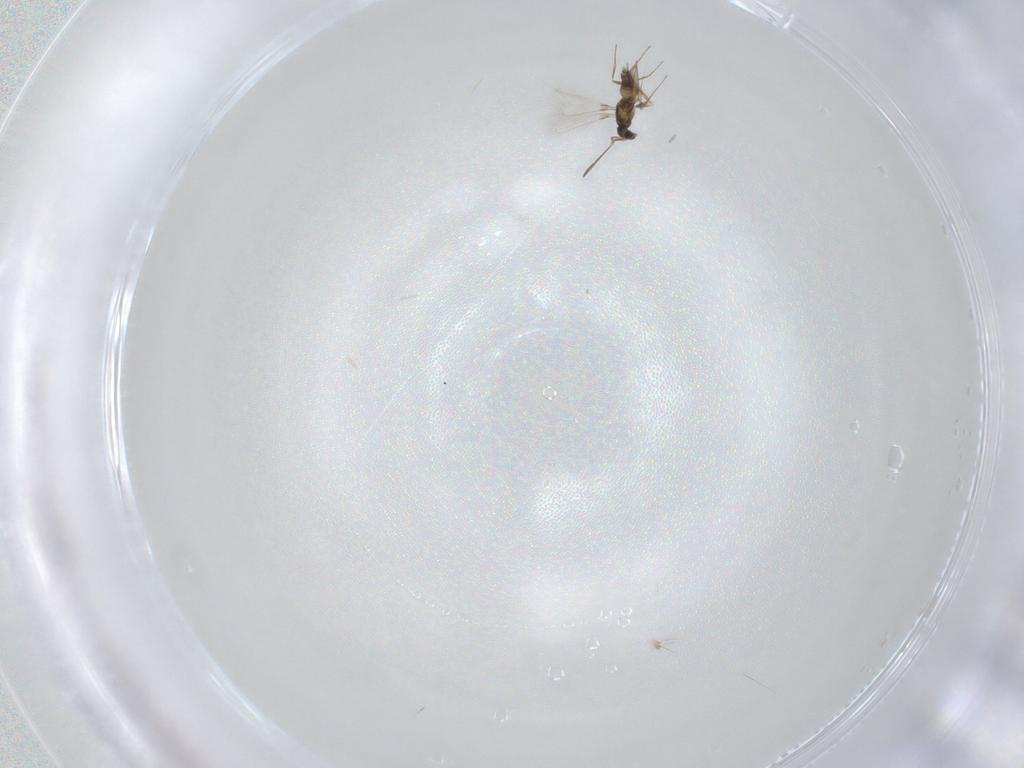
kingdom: Animalia
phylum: Arthropoda
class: Insecta
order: Hymenoptera
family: Mymaridae
